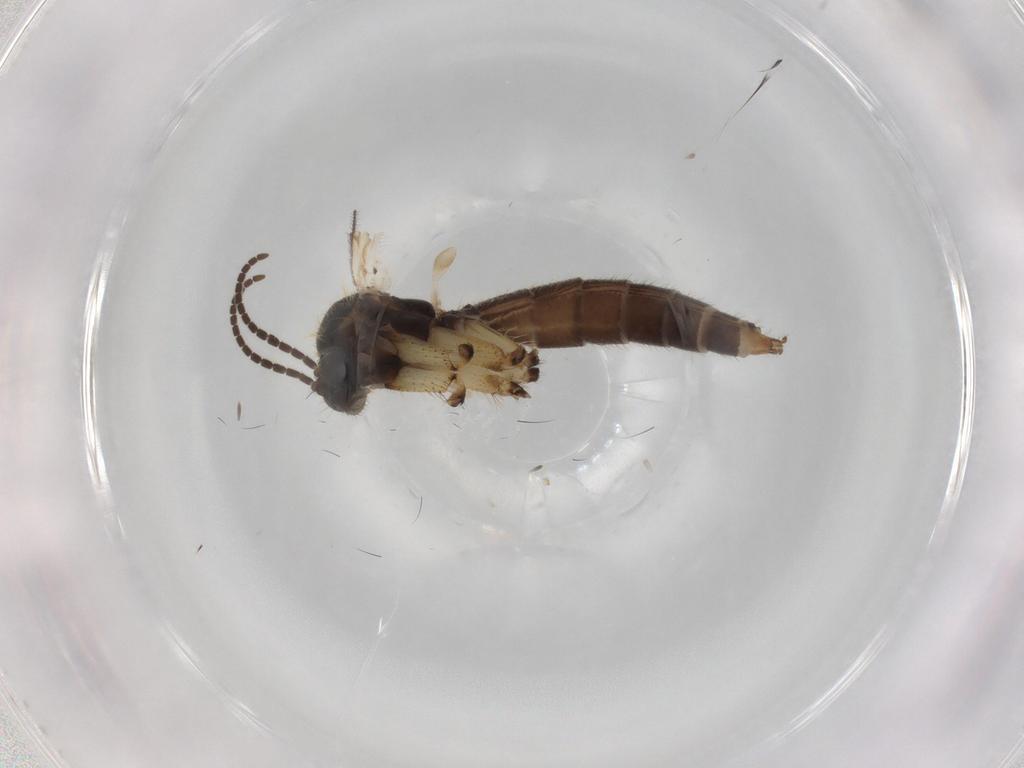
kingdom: Animalia
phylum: Arthropoda
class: Insecta
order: Diptera
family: Mycetophilidae
